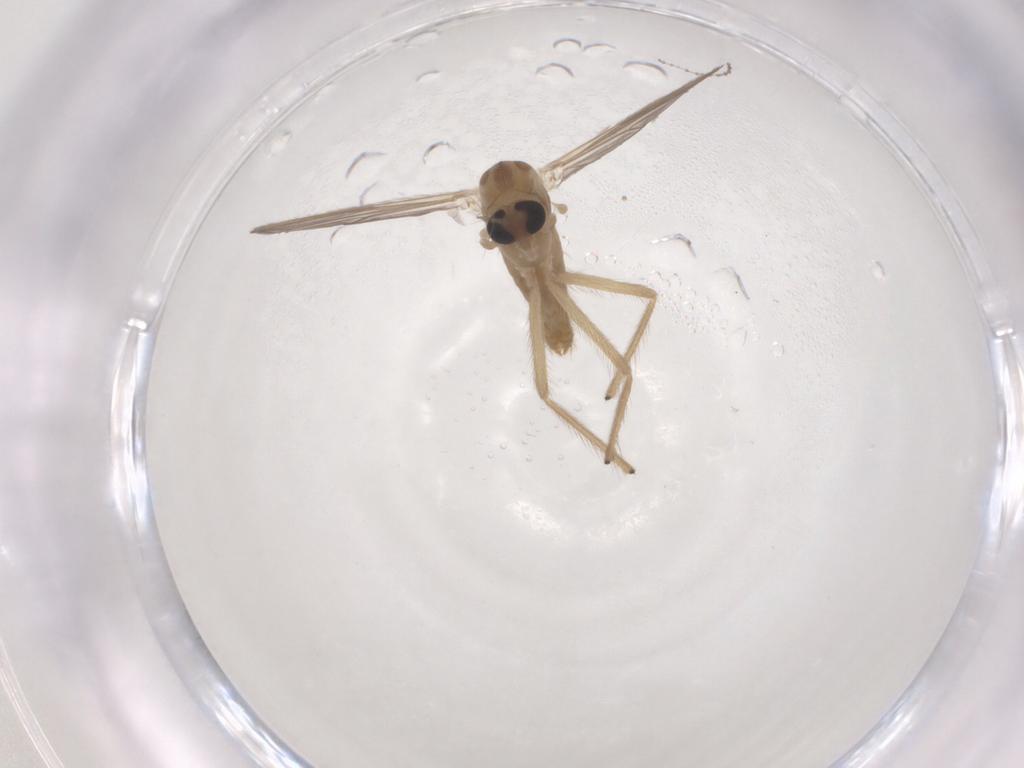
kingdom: Animalia
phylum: Arthropoda
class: Insecta
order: Diptera
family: Chironomidae
